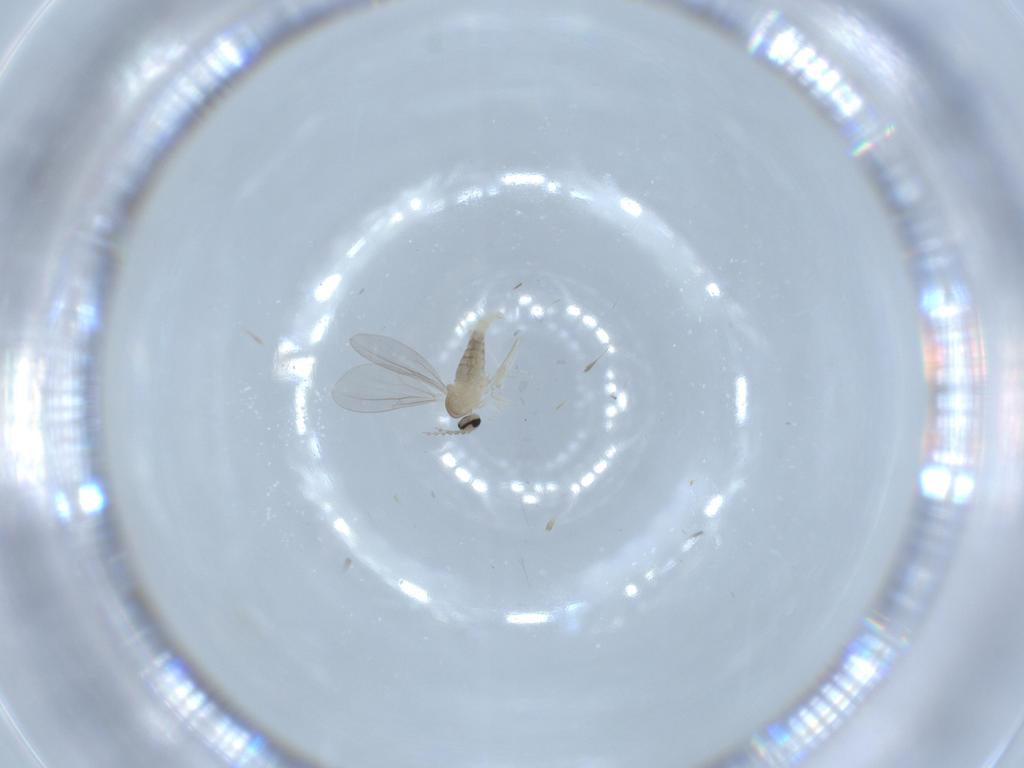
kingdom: Animalia
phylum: Arthropoda
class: Insecta
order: Diptera
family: Cecidomyiidae
